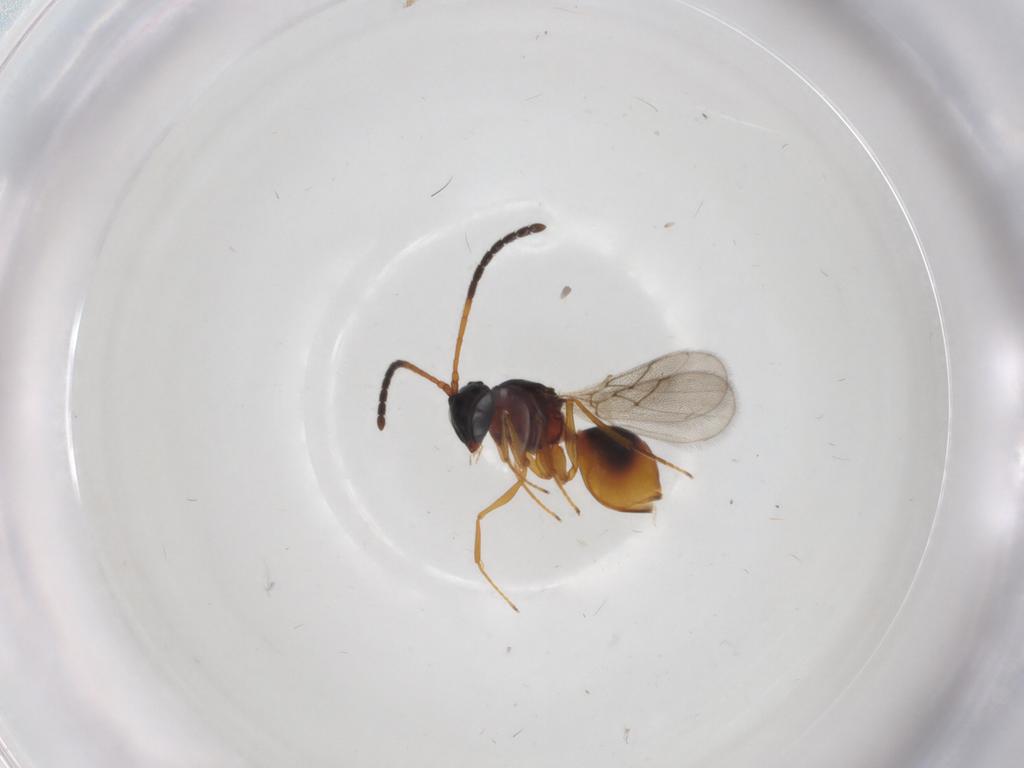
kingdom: Animalia
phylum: Arthropoda
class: Insecta
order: Hymenoptera
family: Figitidae
